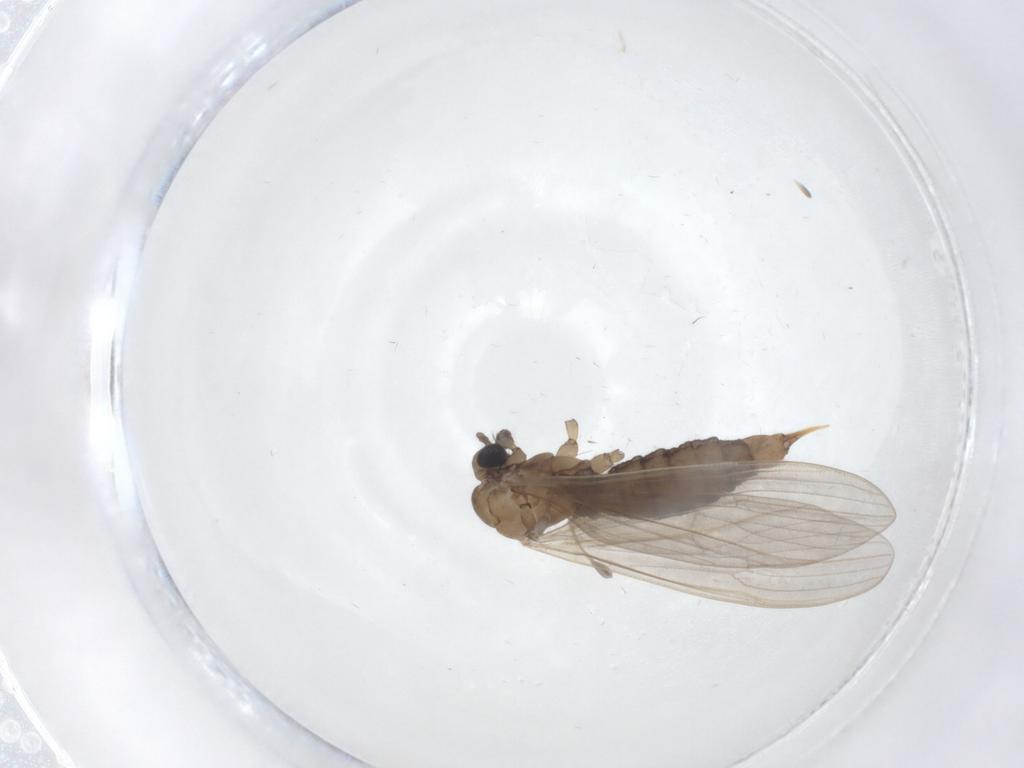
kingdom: Animalia
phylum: Arthropoda
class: Insecta
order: Diptera
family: Limoniidae
